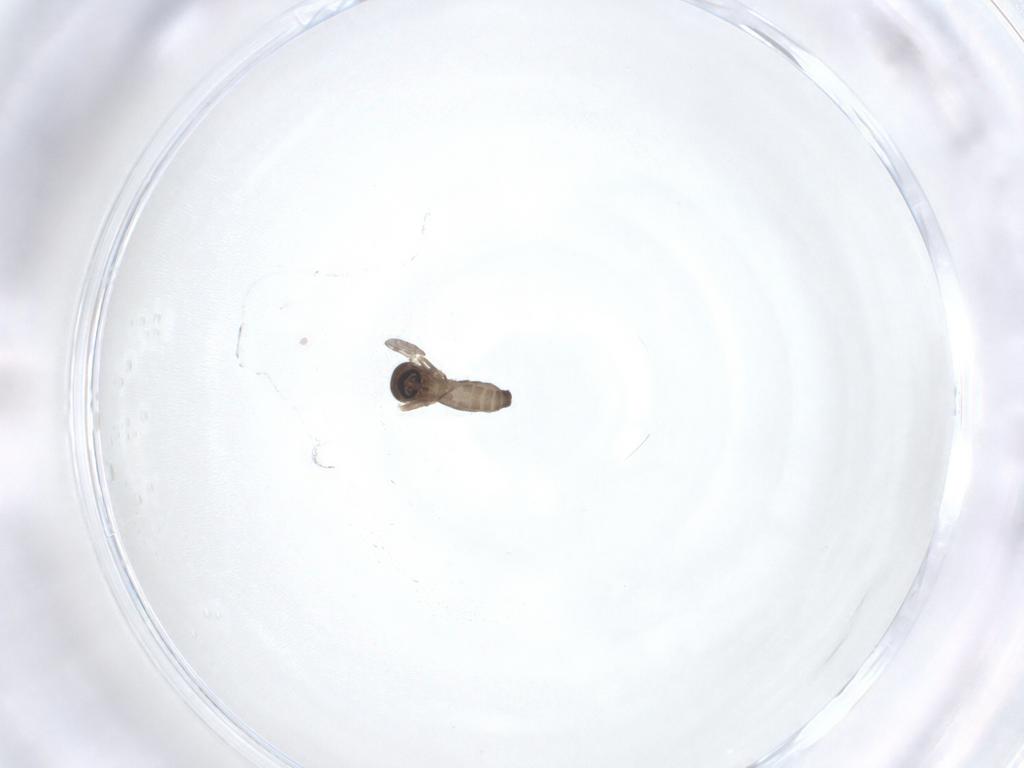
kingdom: Animalia
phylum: Arthropoda
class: Insecta
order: Diptera
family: Ceratopogonidae
